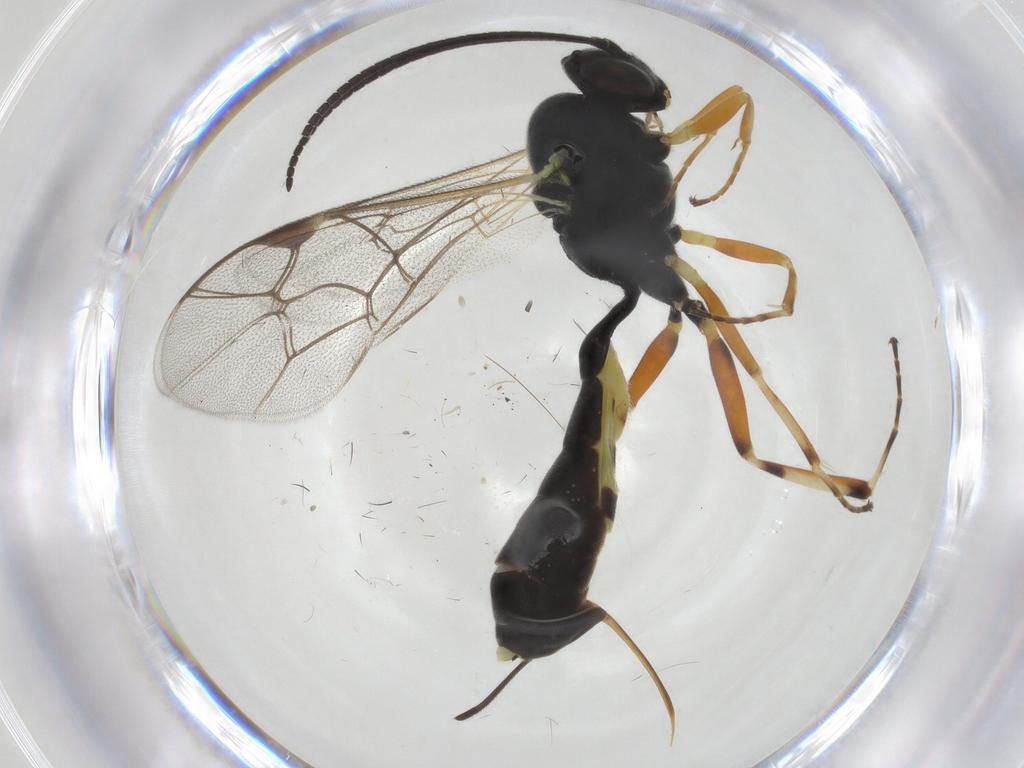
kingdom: Animalia
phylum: Arthropoda
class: Insecta
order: Hymenoptera
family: Ichneumonidae
